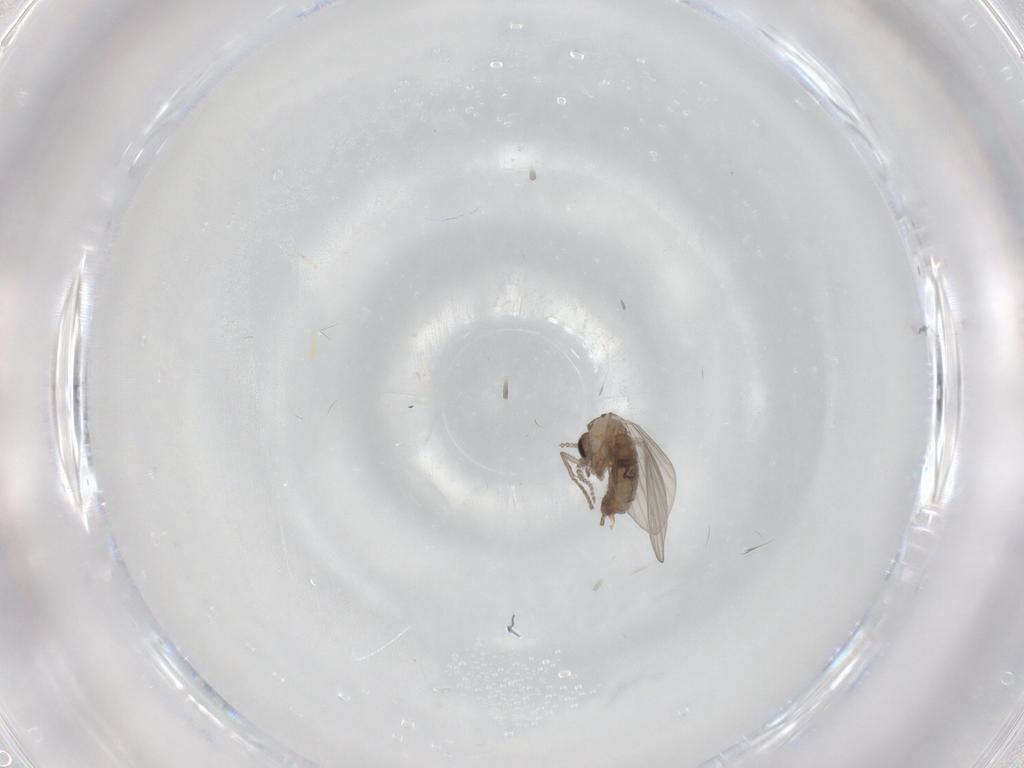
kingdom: Animalia
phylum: Arthropoda
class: Insecta
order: Diptera
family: Psychodidae
